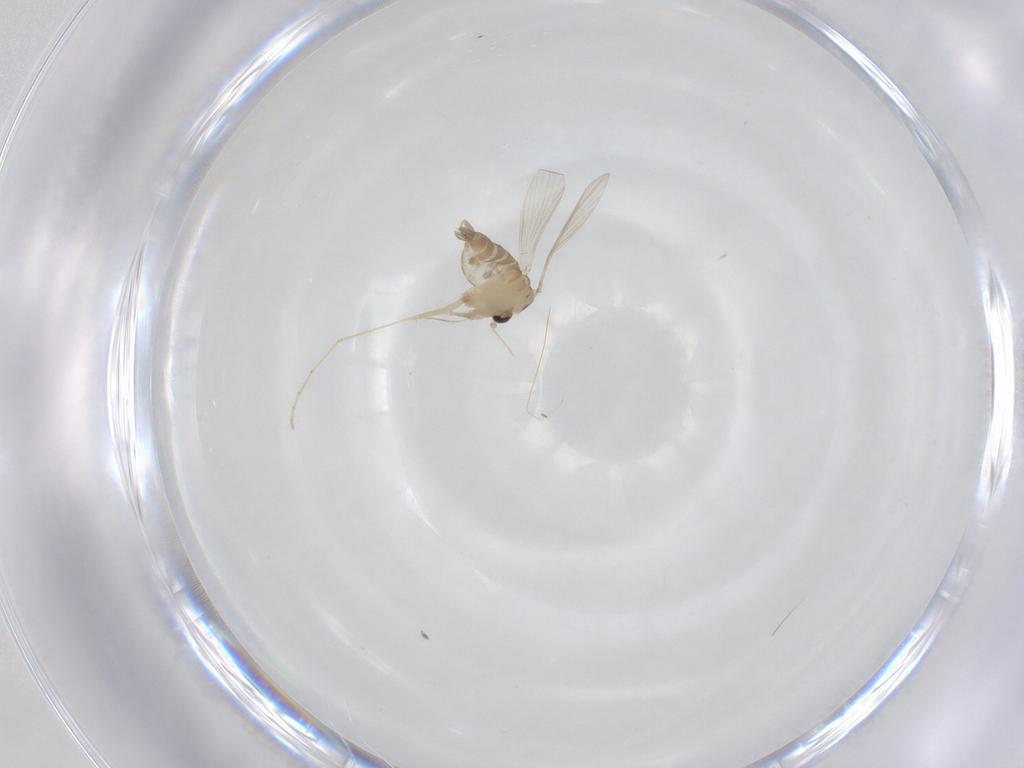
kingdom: Animalia
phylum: Arthropoda
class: Insecta
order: Diptera
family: Psychodidae
